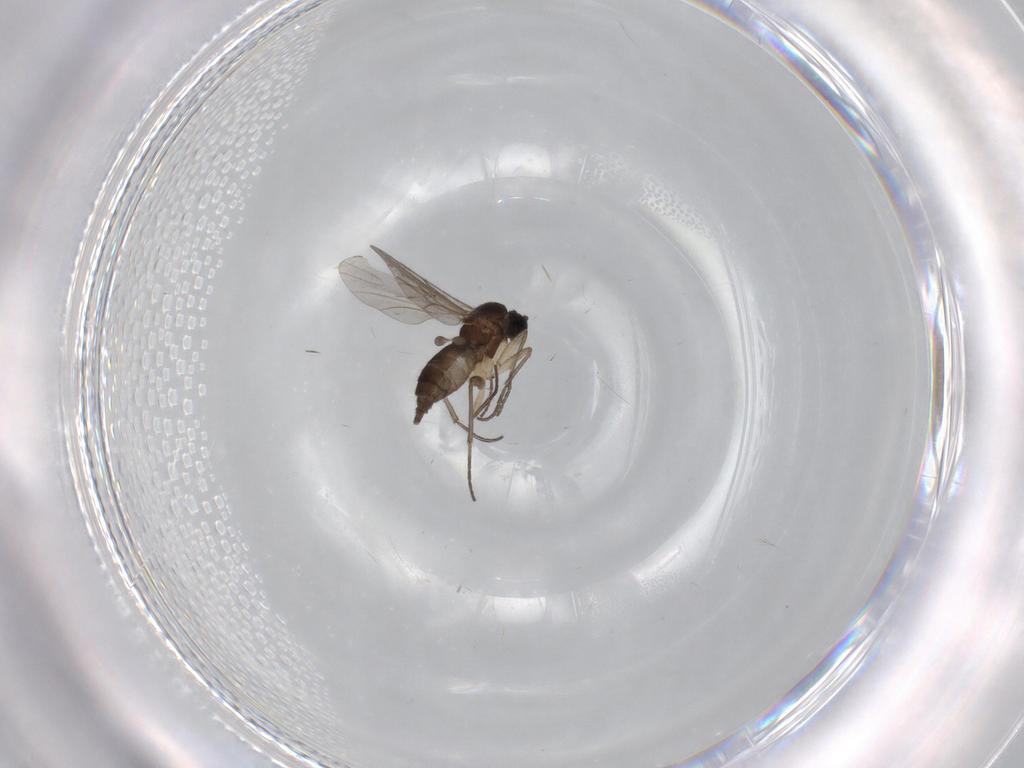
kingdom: Animalia
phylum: Arthropoda
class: Insecta
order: Diptera
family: Sciaridae
